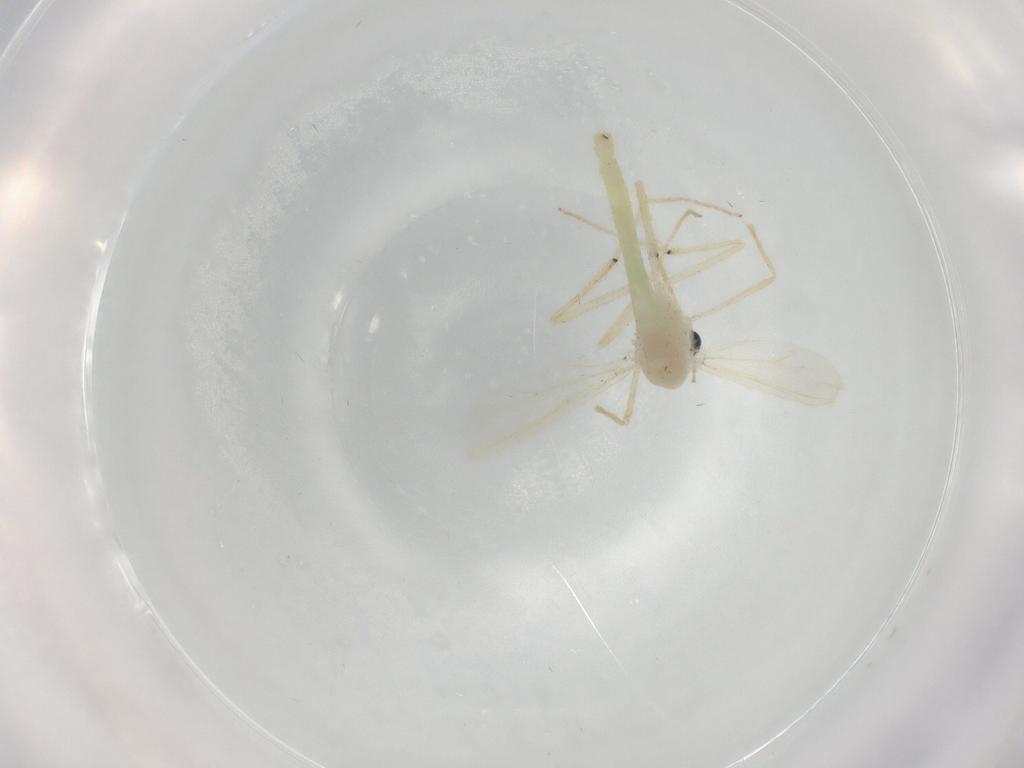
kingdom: Animalia
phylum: Arthropoda
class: Insecta
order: Diptera
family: Chironomidae
